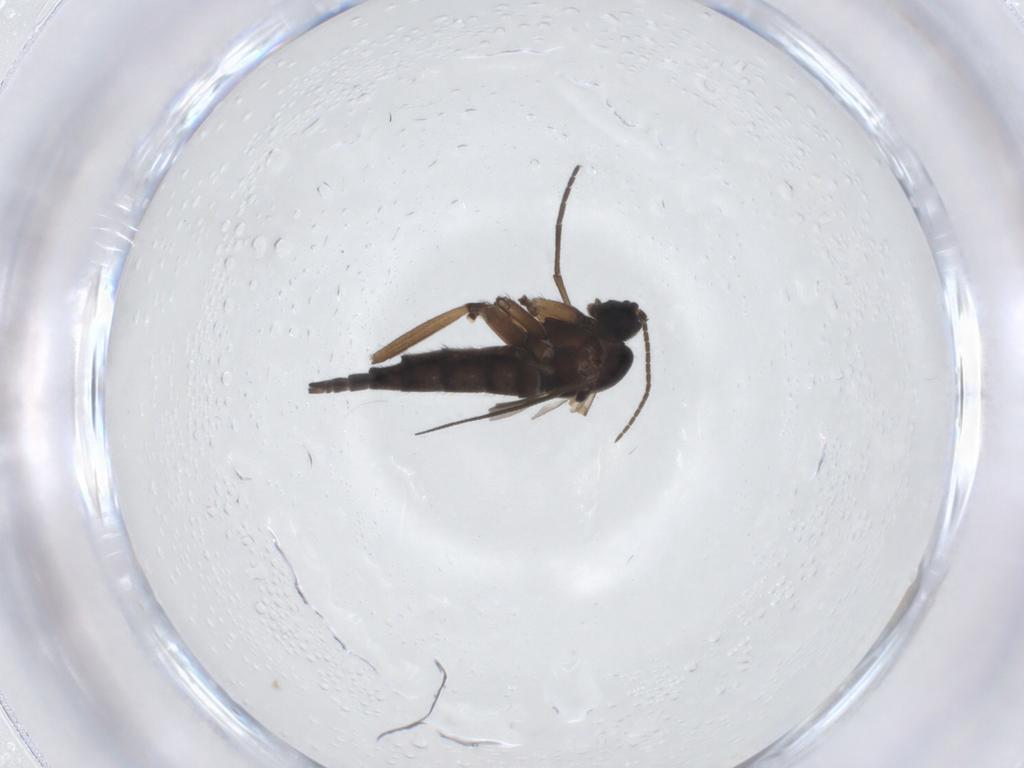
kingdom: Animalia
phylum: Arthropoda
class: Insecta
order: Diptera
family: Sciaridae
